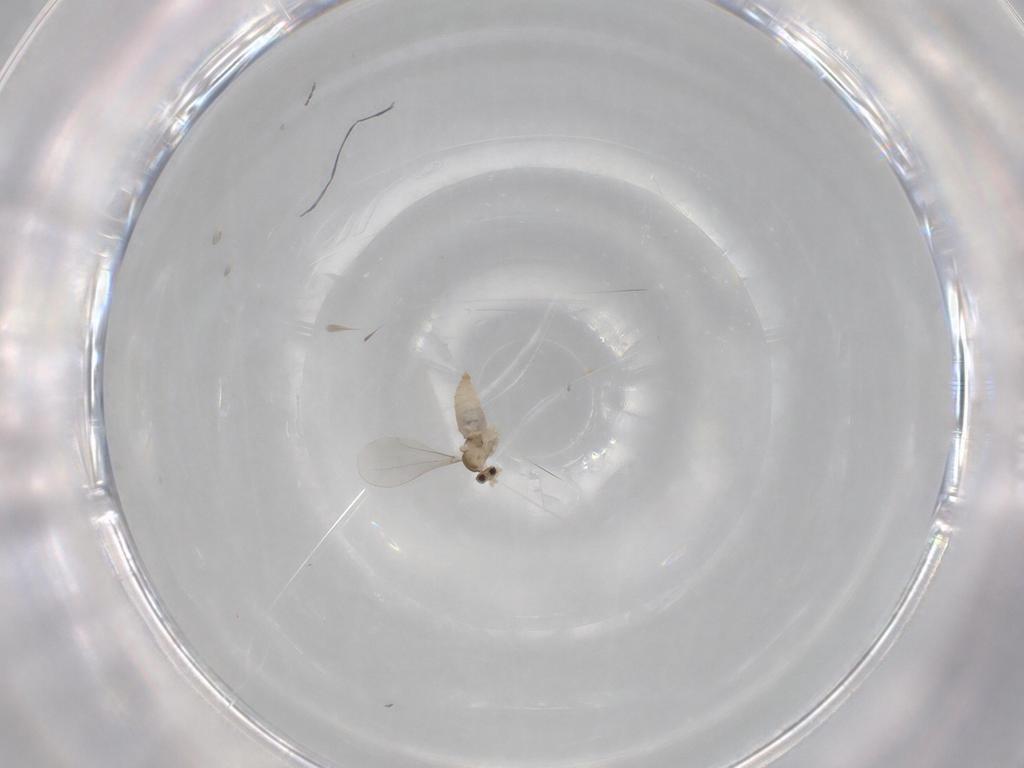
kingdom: Animalia
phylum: Arthropoda
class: Insecta
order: Diptera
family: Cecidomyiidae
